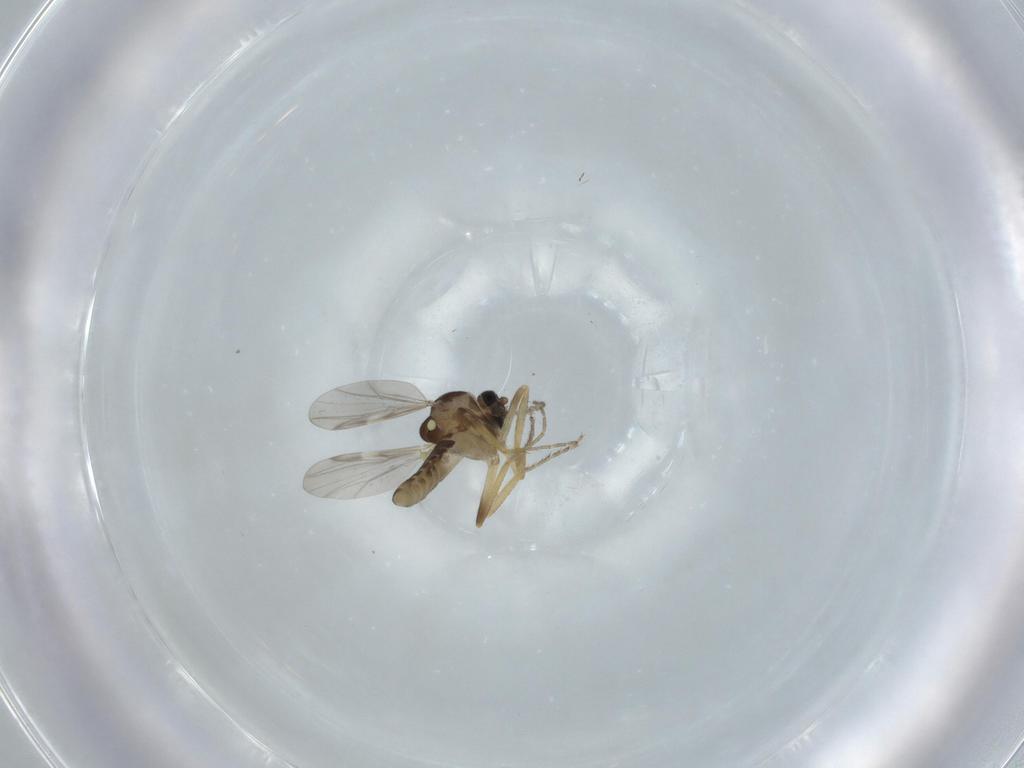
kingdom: Animalia
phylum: Arthropoda
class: Insecta
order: Diptera
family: Ceratopogonidae
